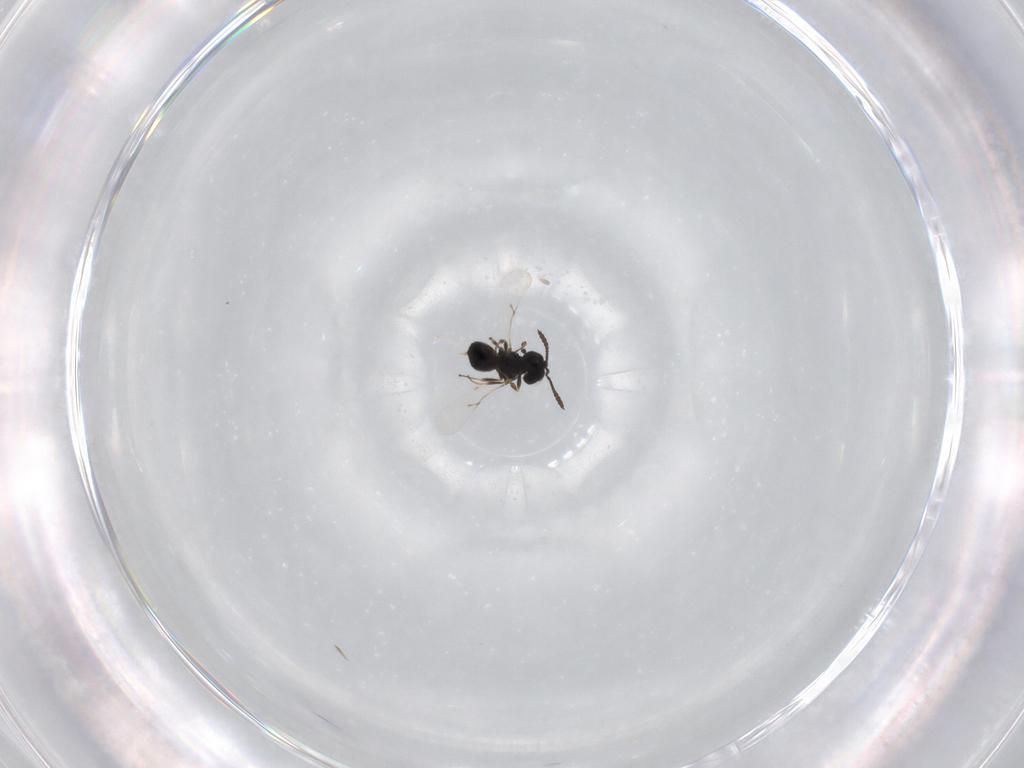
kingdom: Animalia
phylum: Arthropoda
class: Insecta
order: Hymenoptera
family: Scelionidae
